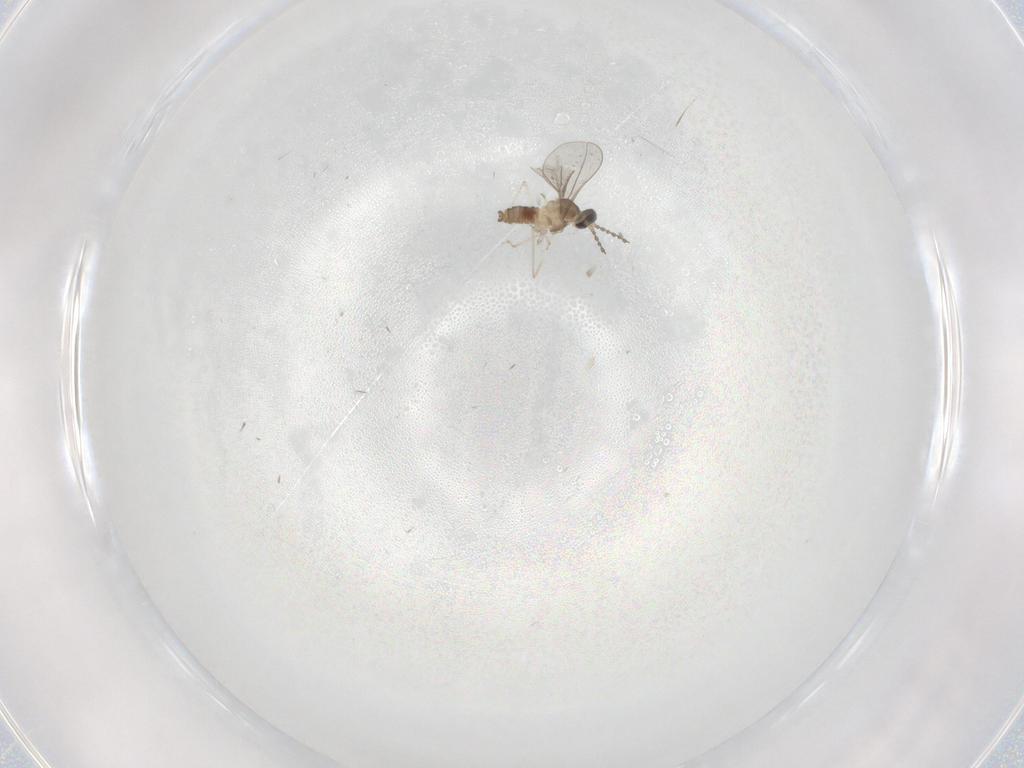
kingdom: Animalia
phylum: Arthropoda
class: Insecta
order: Diptera
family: Cecidomyiidae
